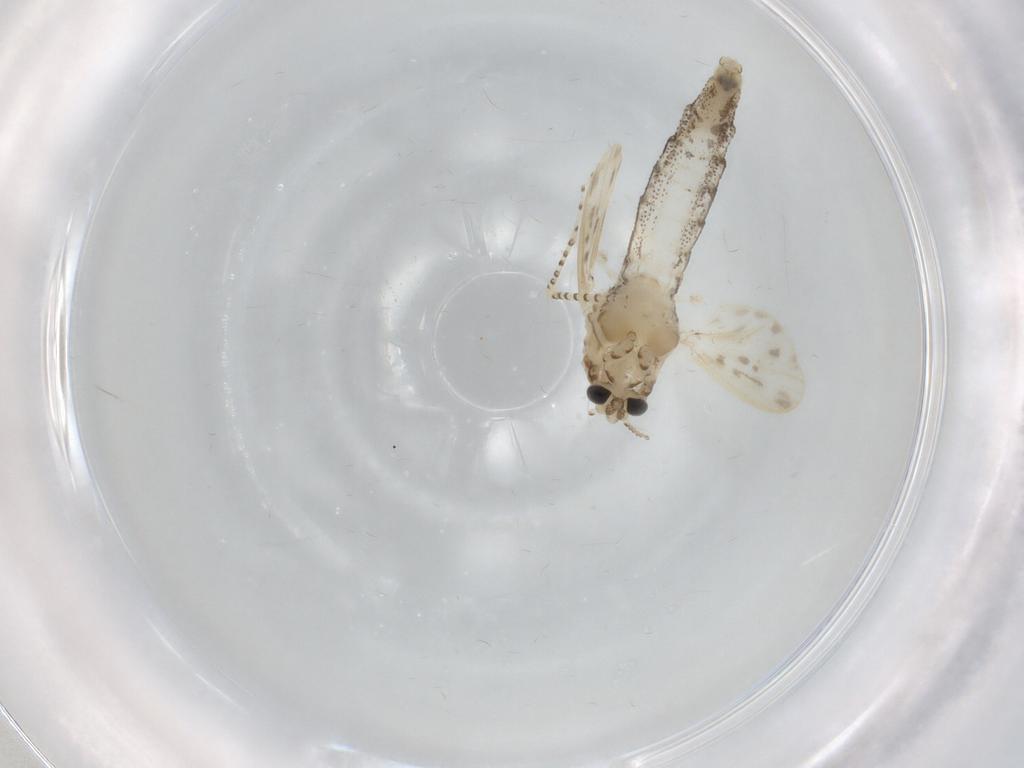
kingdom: Animalia
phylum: Arthropoda
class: Insecta
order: Diptera
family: Chaoboridae
